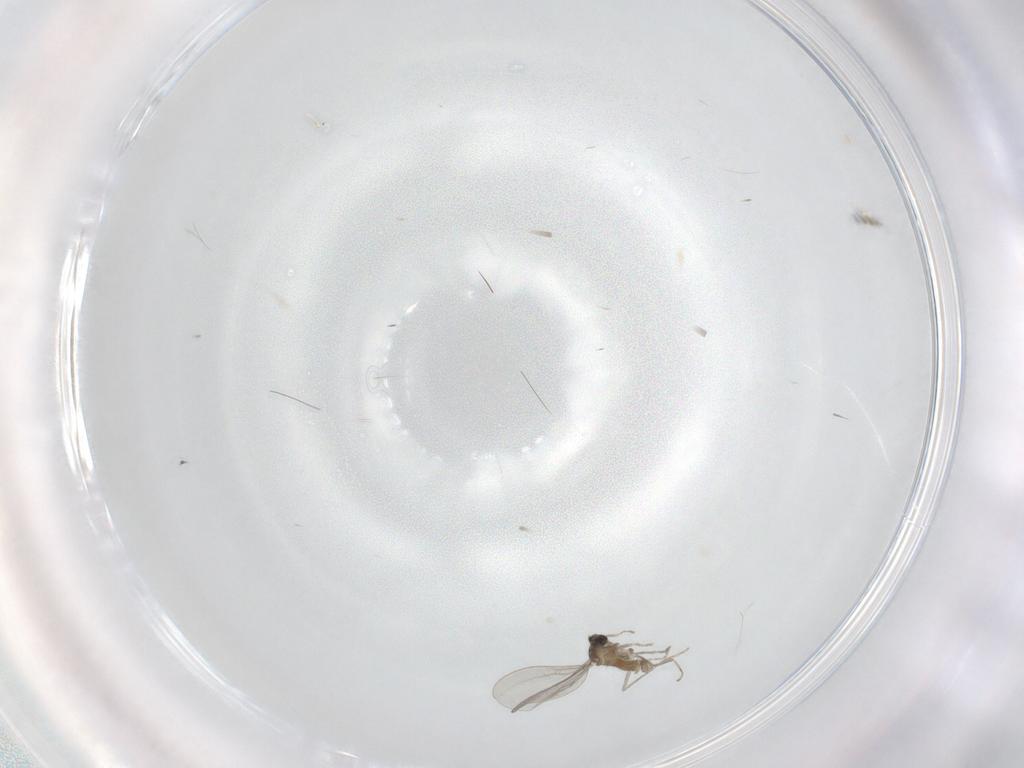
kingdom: Animalia
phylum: Arthropoda
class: Insecta
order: Diptera
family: Cecidomyiidae
